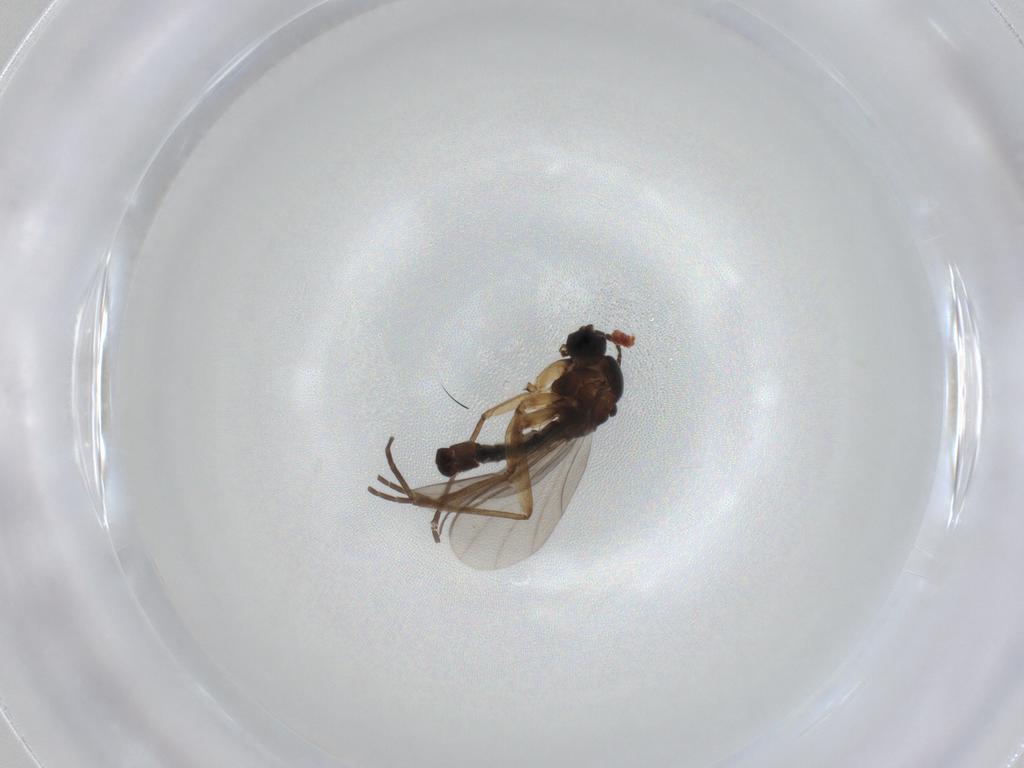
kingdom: Animalia
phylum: Arthropoda
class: Insecta
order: Diptera
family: Sciaridae
